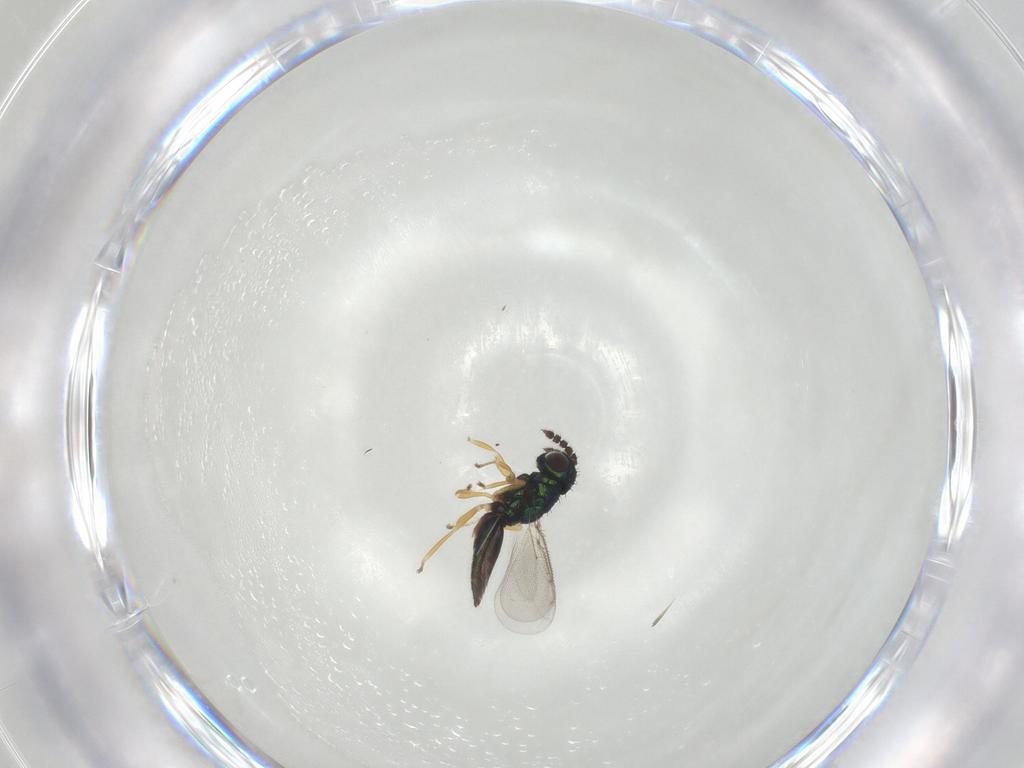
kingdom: Animalia
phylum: Arthropoda
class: Insecta
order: Hymenoptera
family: Eulophidae
